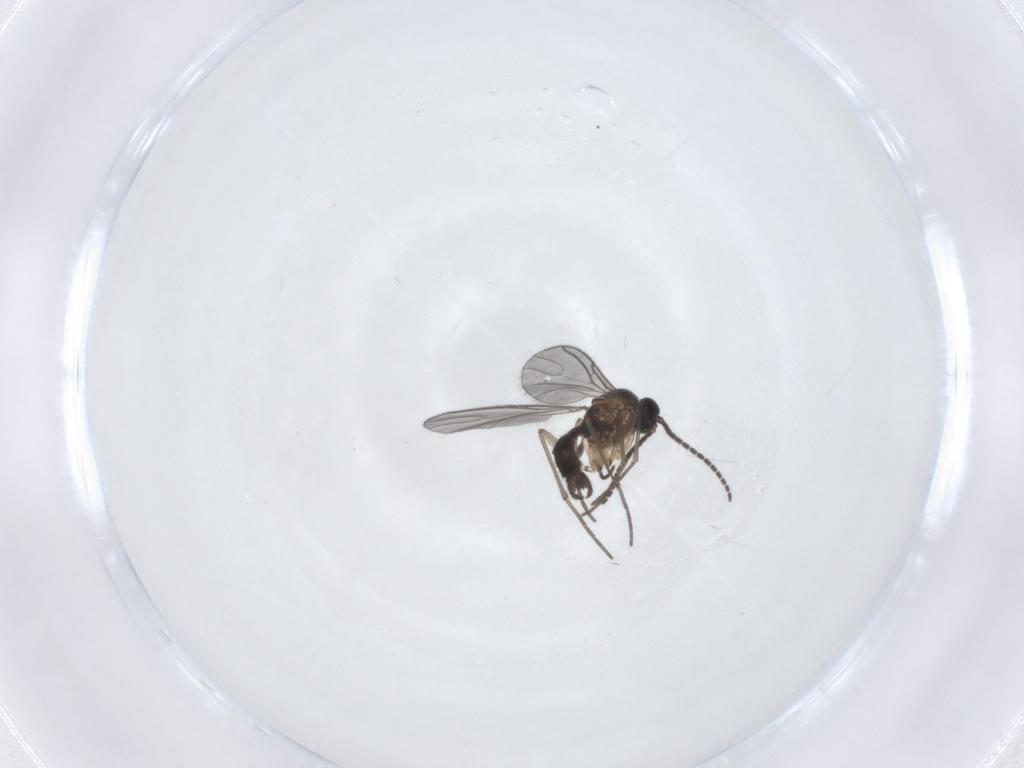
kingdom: Animalia
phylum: Arthropoda
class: Insecta
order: Diptera
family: Sciaridae
